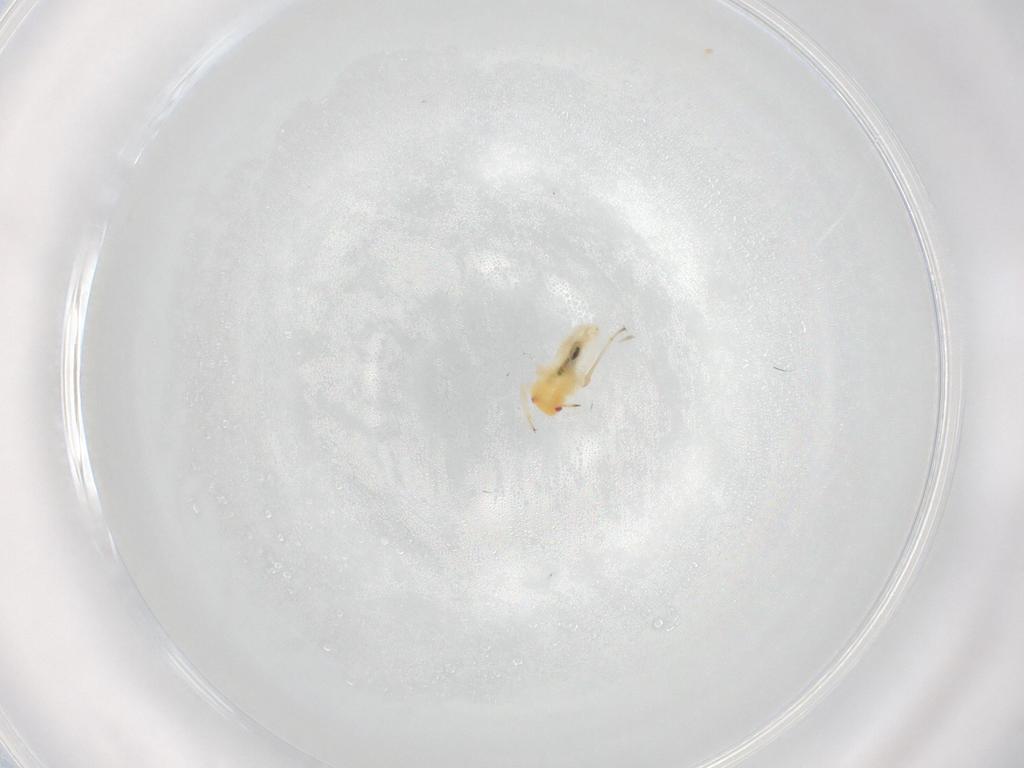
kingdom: Animalia
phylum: Arthropoda
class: Insecta
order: Hemiptera
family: Miridae
